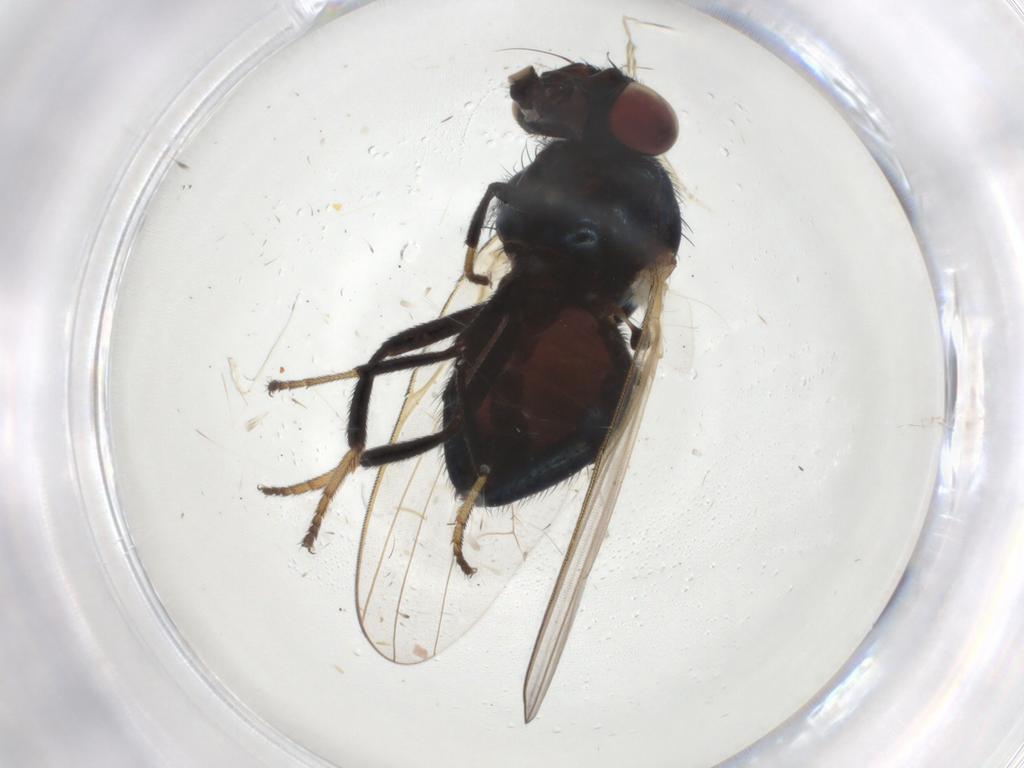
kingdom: Animalia
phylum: Arthropoda
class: Insecta
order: Diptera
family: Lonchaeidae
